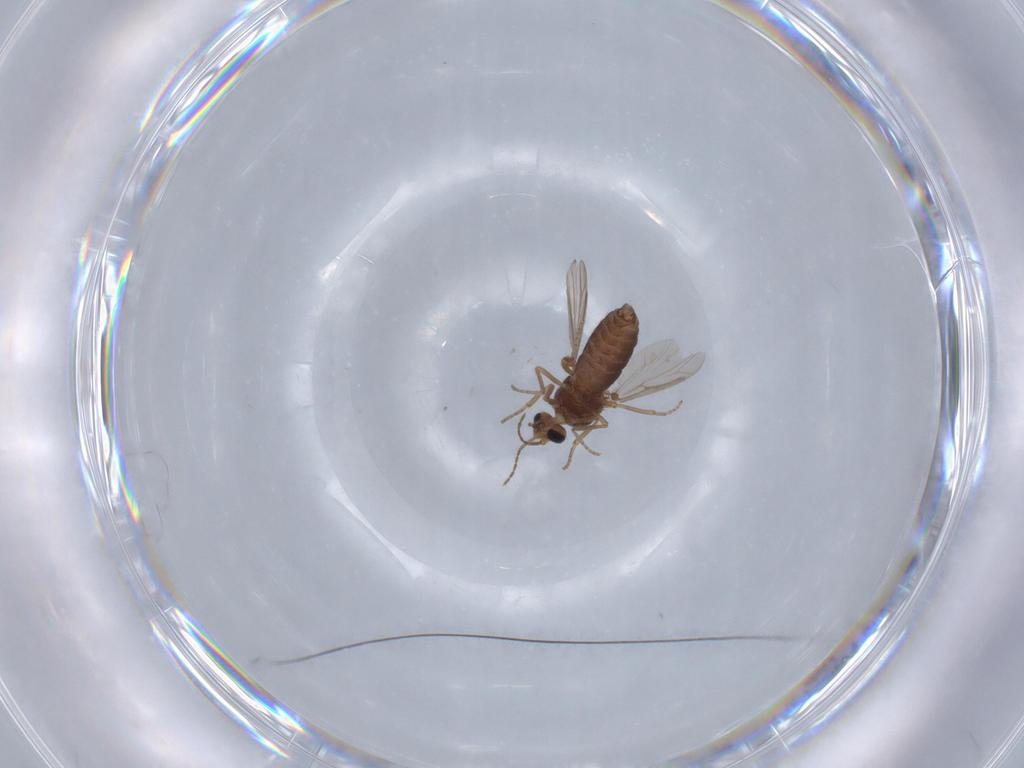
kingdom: Animalia
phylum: Arthropoda
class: Insecta
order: Diptera
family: Ceratopogonidae
